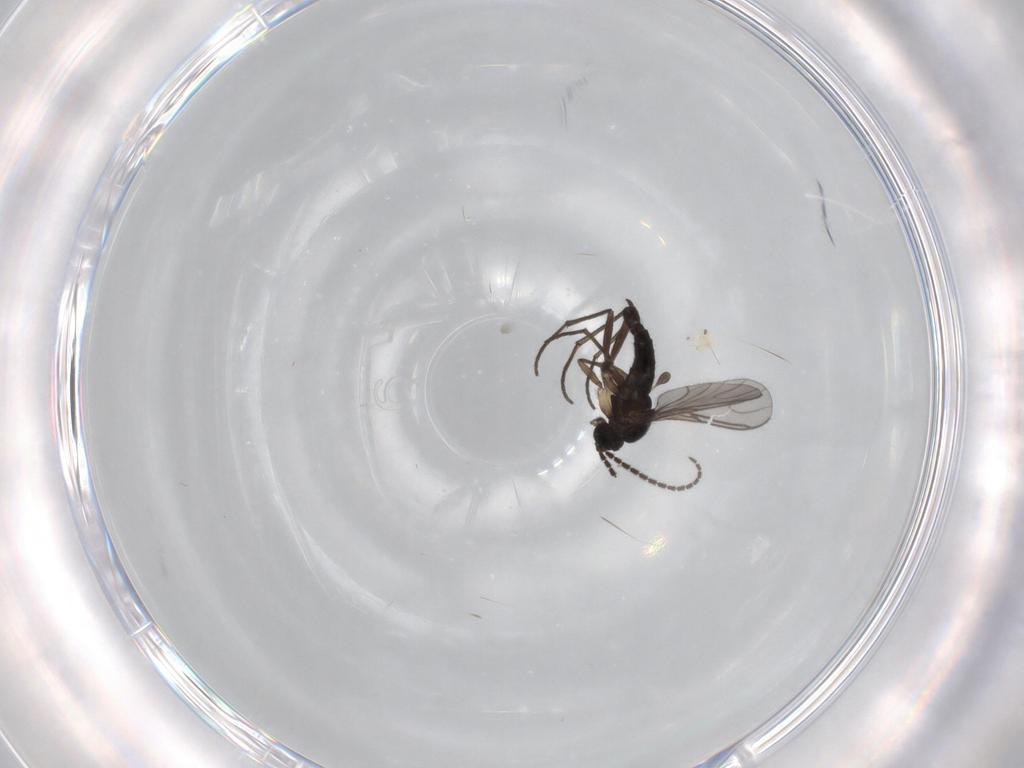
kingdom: Animalia
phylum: Arthropoda
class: Insecta
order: Diptera
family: Sciaridae
